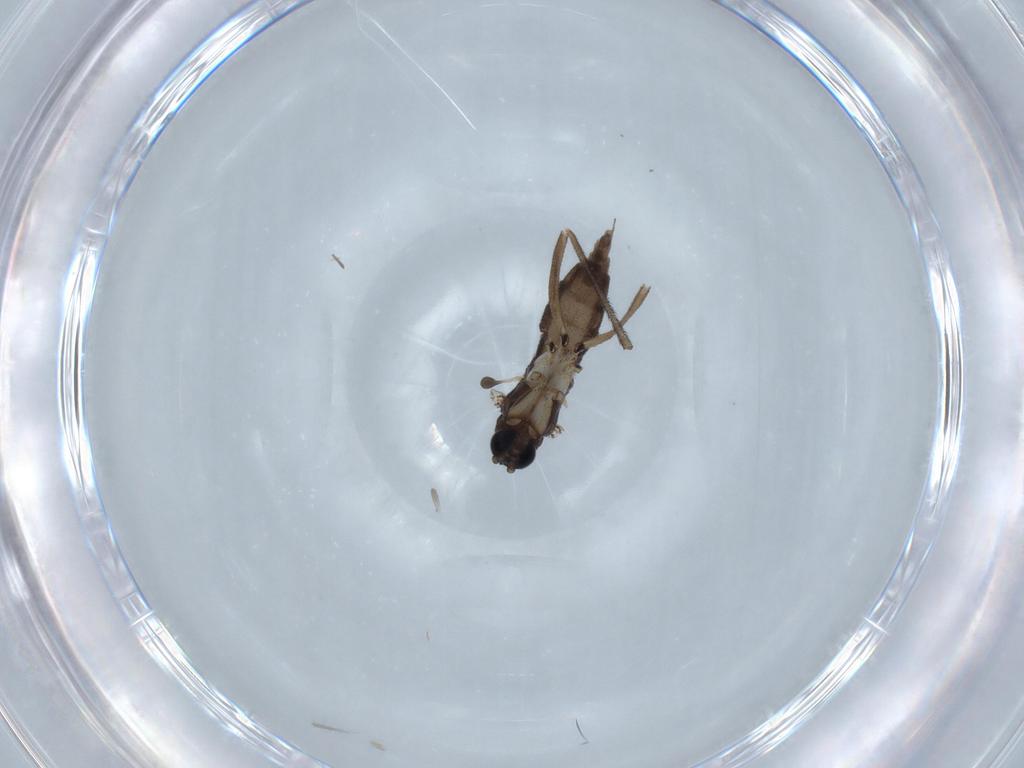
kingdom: Animalia
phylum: Arthropoda
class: Insecta
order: Diptera
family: Sciaridae
